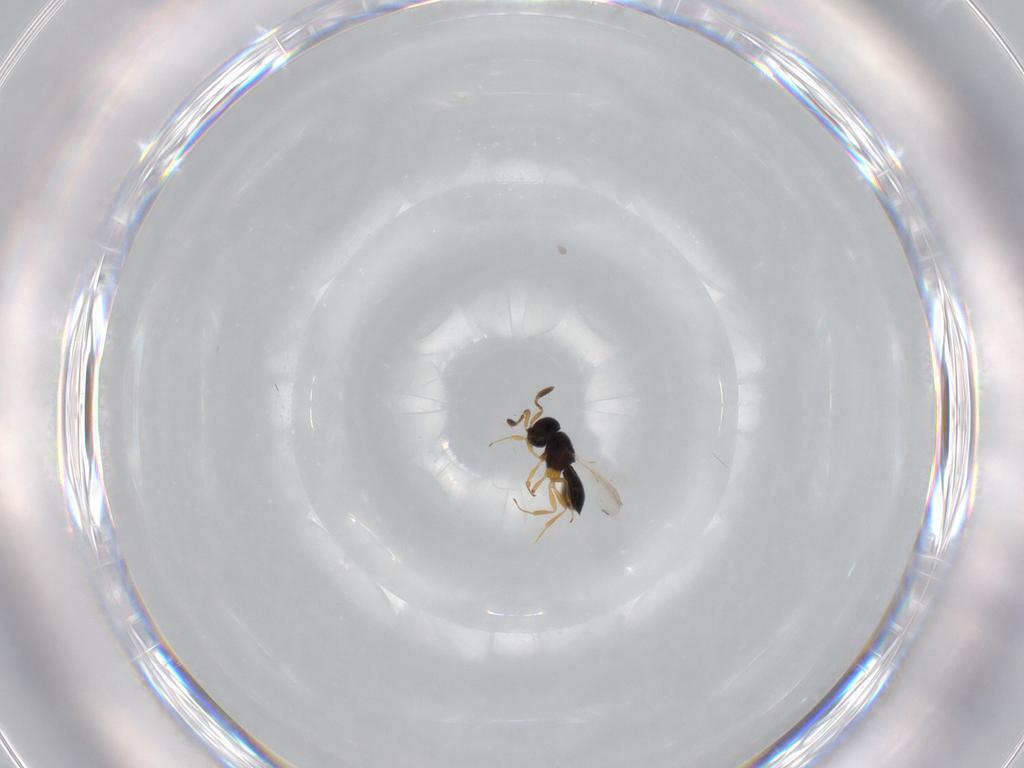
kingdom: Animalia
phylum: Arthropoda
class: Insecta
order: Hymenoptera
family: Scelionidae
